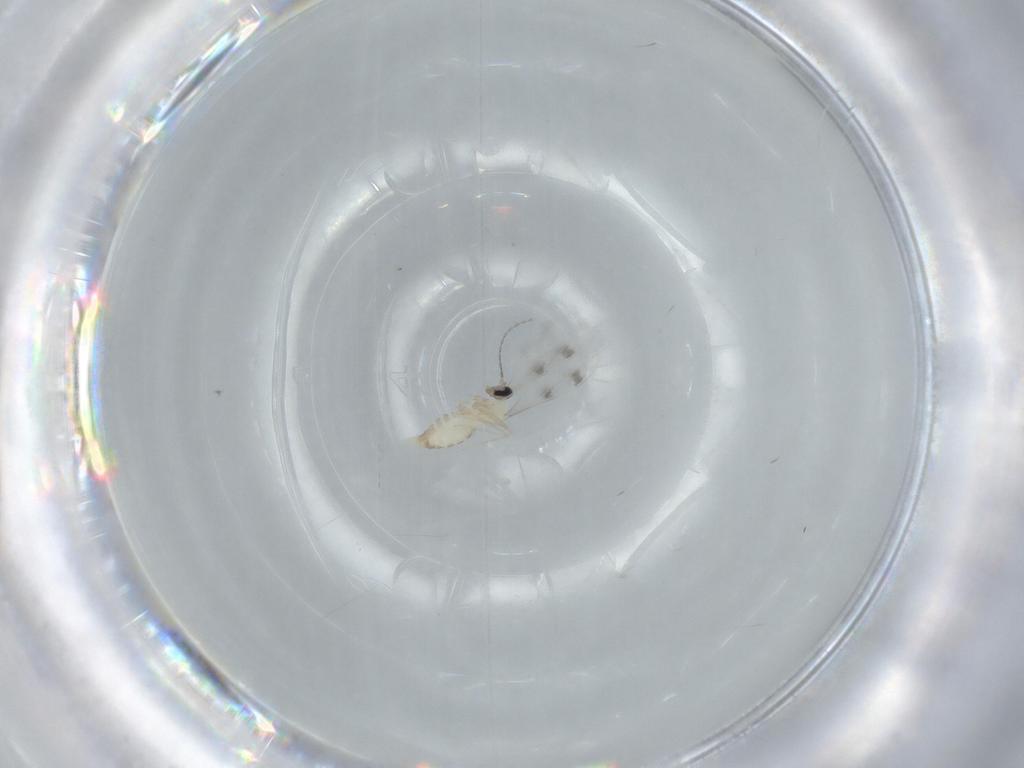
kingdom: Animalia
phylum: Arthropoda
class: Insecta
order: Diptera
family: Cecidomyiidae
